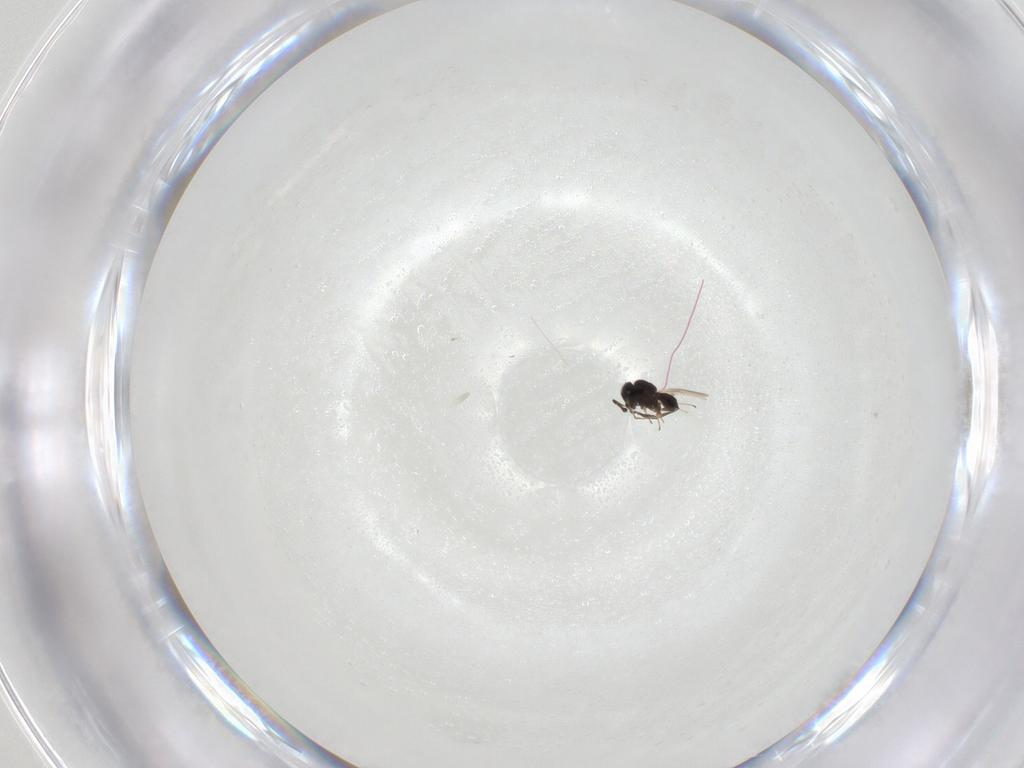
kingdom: Animalia
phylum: Arthropoda
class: Insecta
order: Hymenoptera
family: Scelionidae
